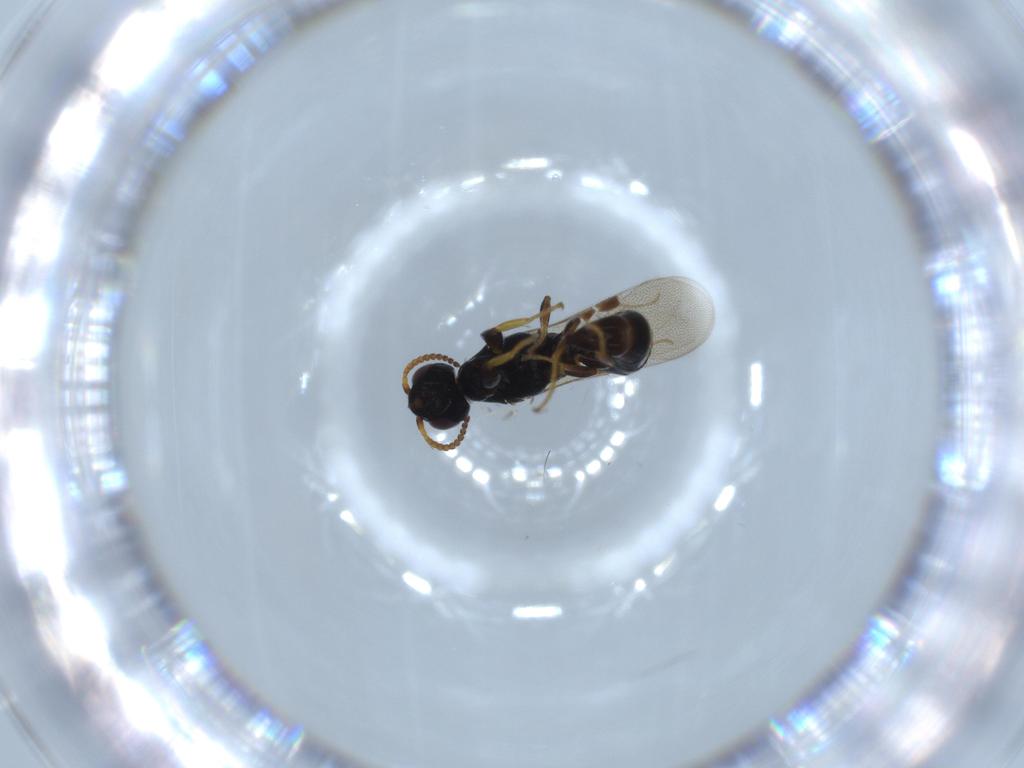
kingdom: Animalia
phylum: Arthropoda
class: Insecta
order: Hymenoptera
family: Bethylidae
